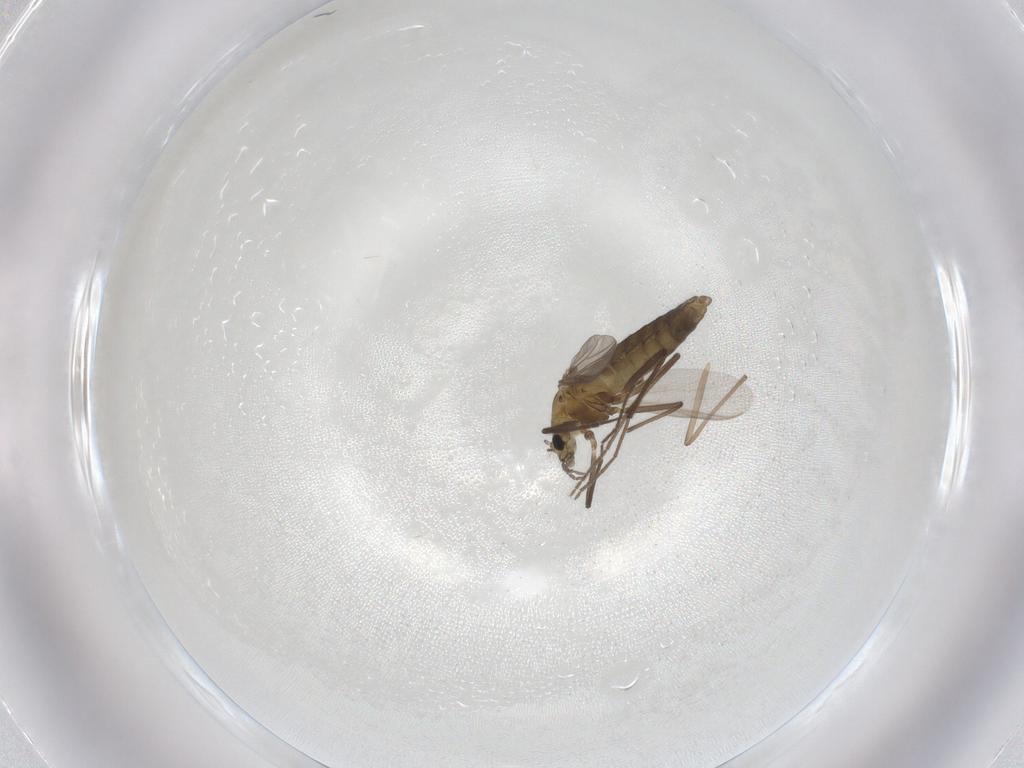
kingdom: Animalia
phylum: Arthropoda
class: Insecta
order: Diptera
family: Chironomidae
